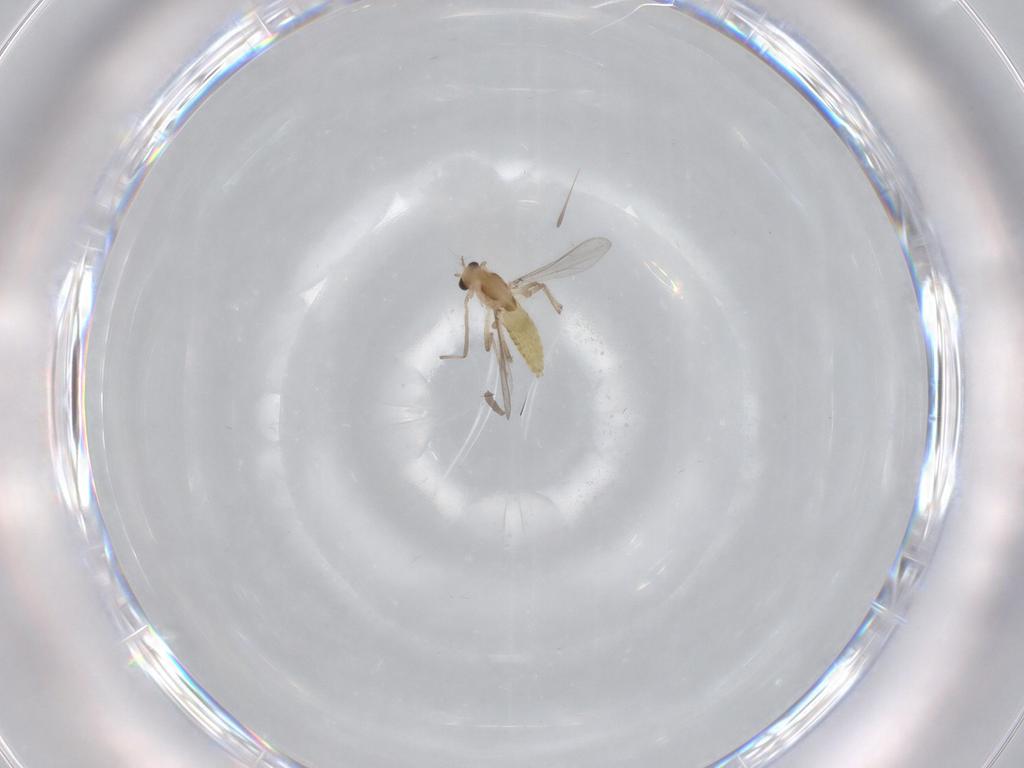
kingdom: Animalia
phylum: Arthropoda
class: Insecta
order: Diptera
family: Chironomidae
